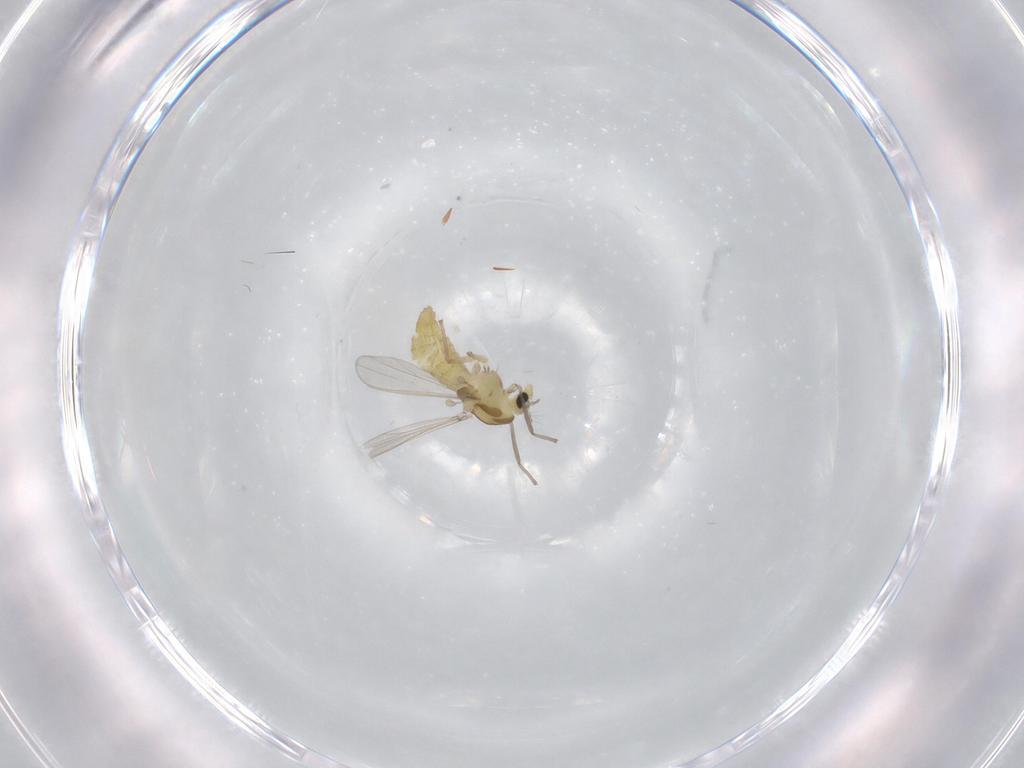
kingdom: Animalia
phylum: Arthropoda
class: Insecta
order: Diptera
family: Chironomidae
